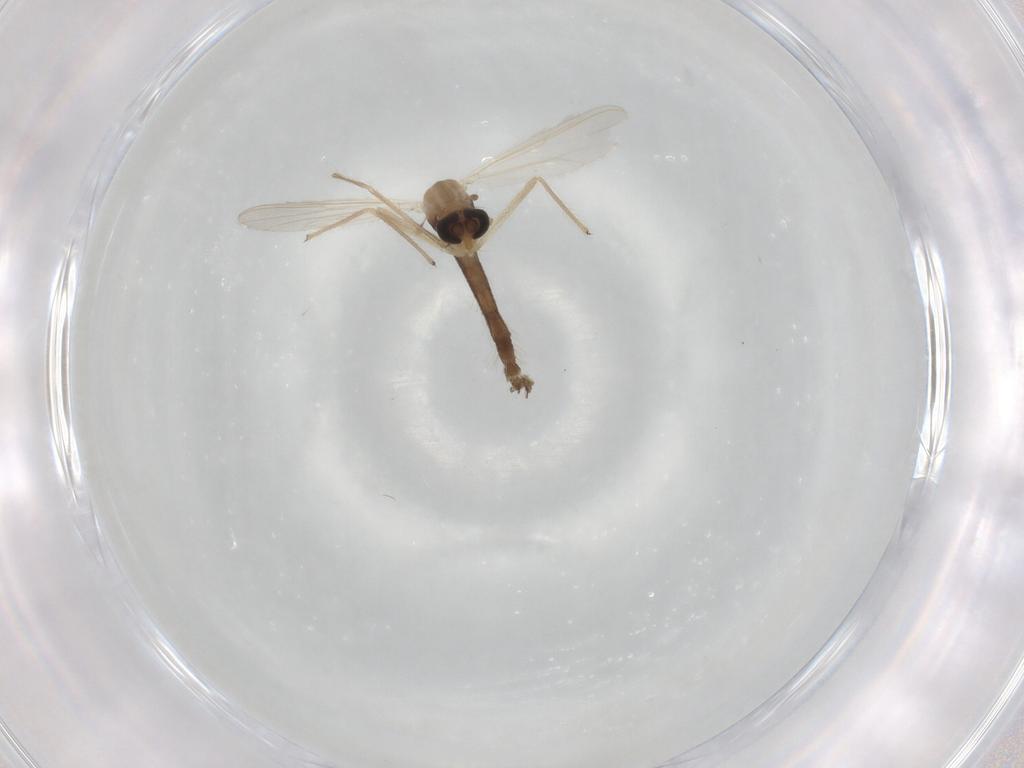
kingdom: Animalia
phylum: Arthropoda
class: Insecta
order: Diptera
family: Chironomidae
